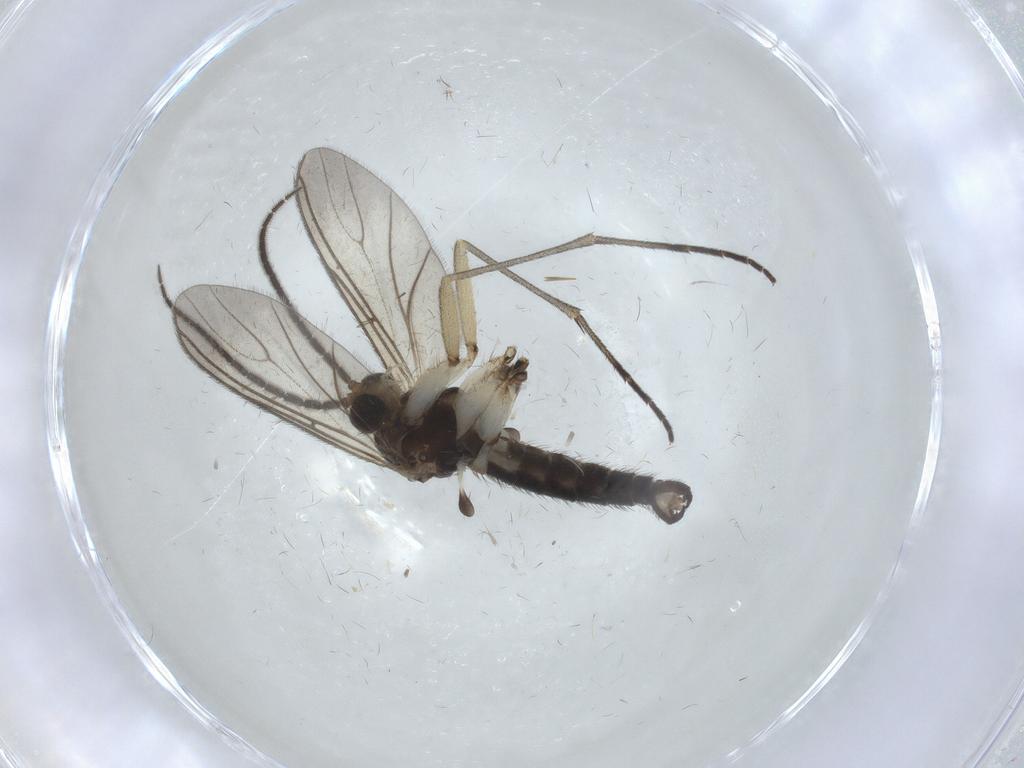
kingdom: Animalia
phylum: Arthropoda
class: Insecta
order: Diptera
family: Sciaridae
